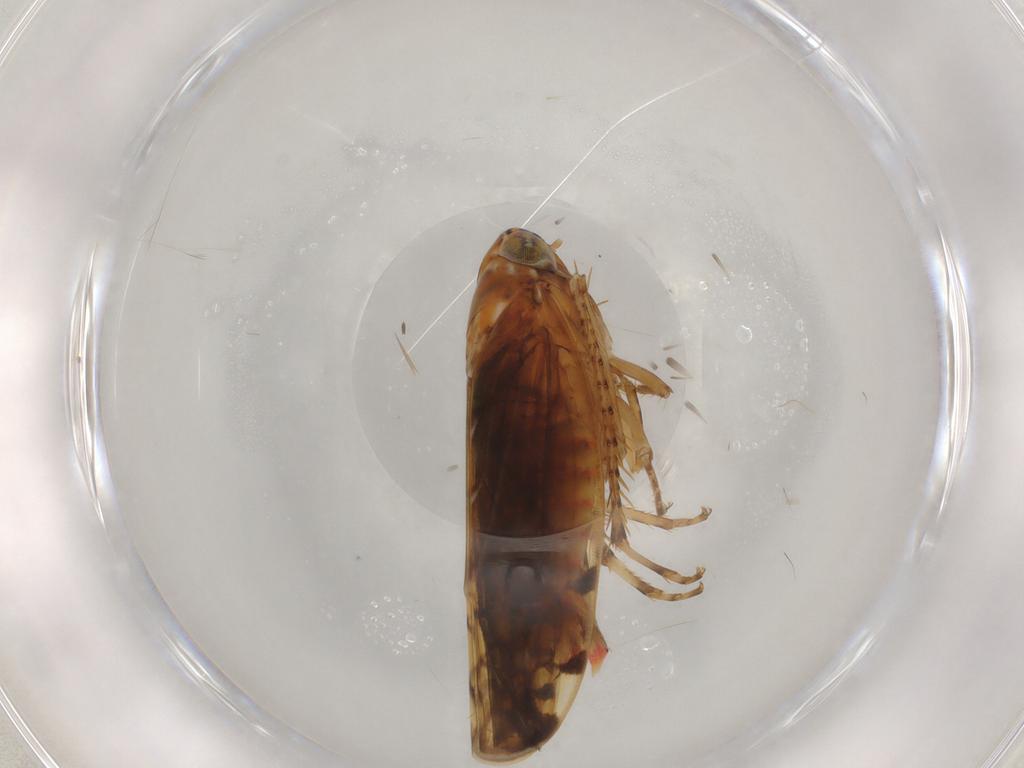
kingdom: Animalia
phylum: Arthropoda
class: Insecta
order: Hemiptera
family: Cicadellidae
